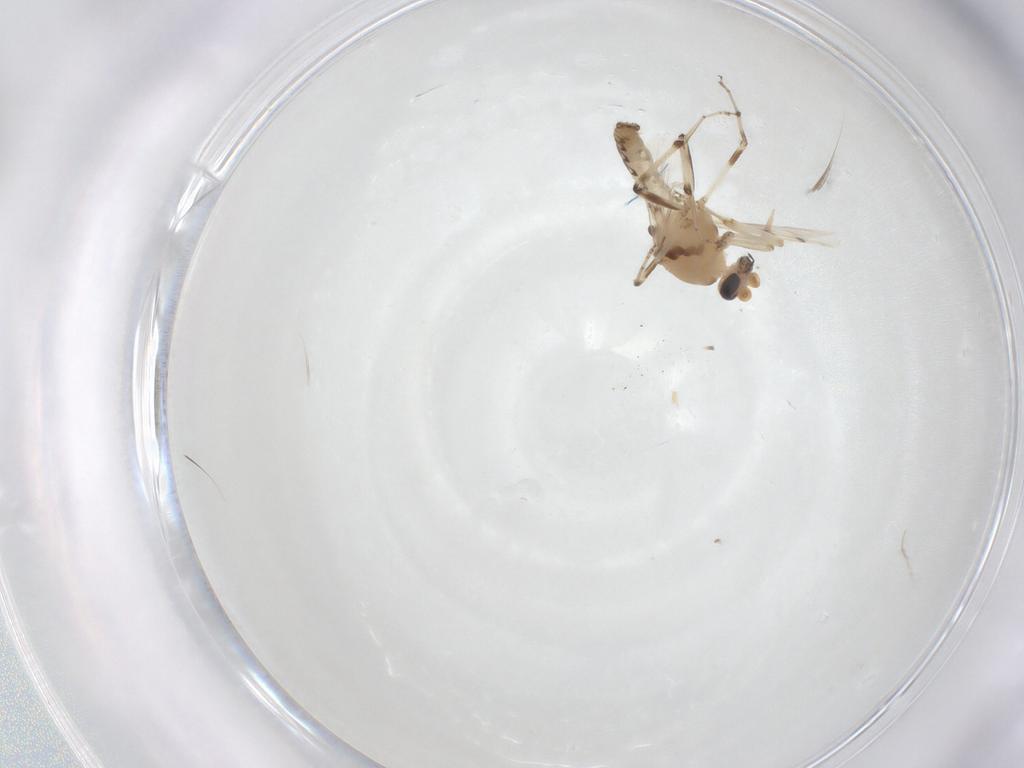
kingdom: Animalia
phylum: Arthropoda
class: Insecta
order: Diptera
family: Ceratopogonidae
